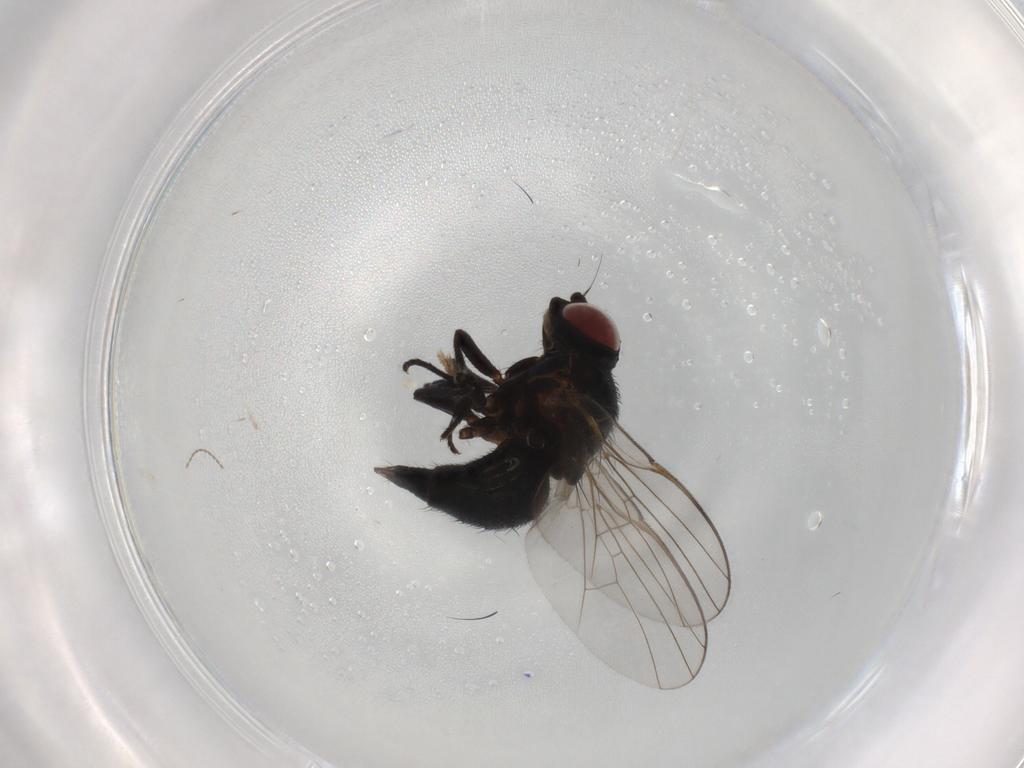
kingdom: Animalia
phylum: Arthropoda
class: Insecta
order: Diptera
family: Agromyzidae
